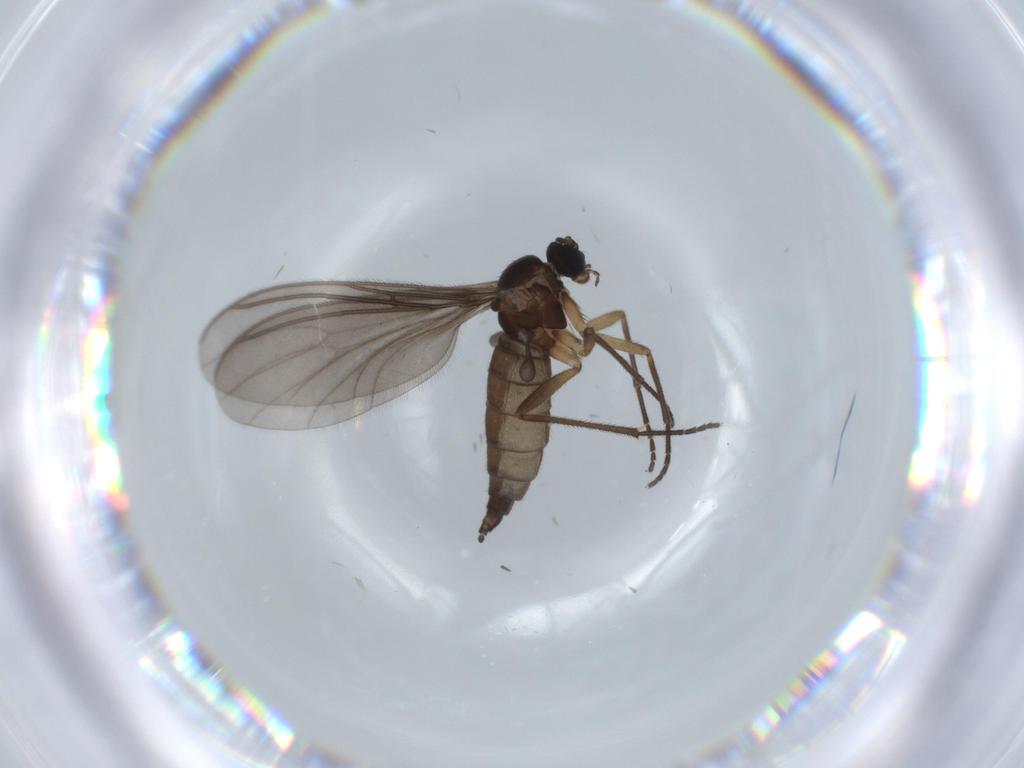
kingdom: Animalia
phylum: Arthropoda
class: Insecta
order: Diptera
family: Sciaridae
